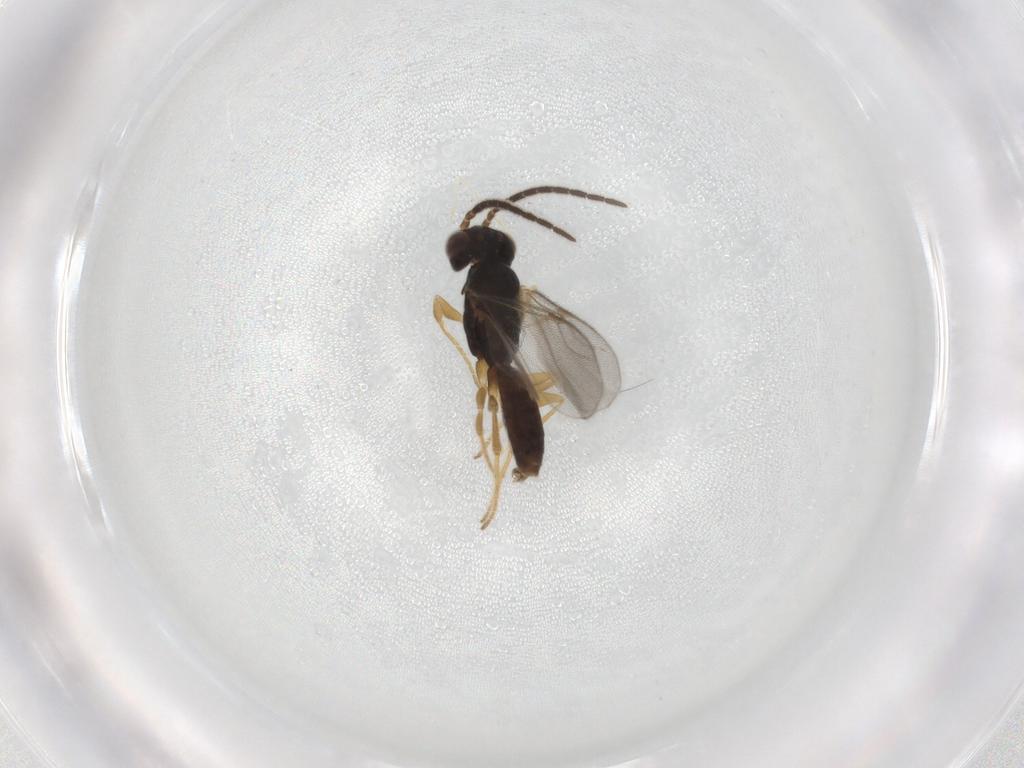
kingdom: Animalia
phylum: Arthropoda
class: Insecta
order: Hymenoptera
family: Dryinidae
